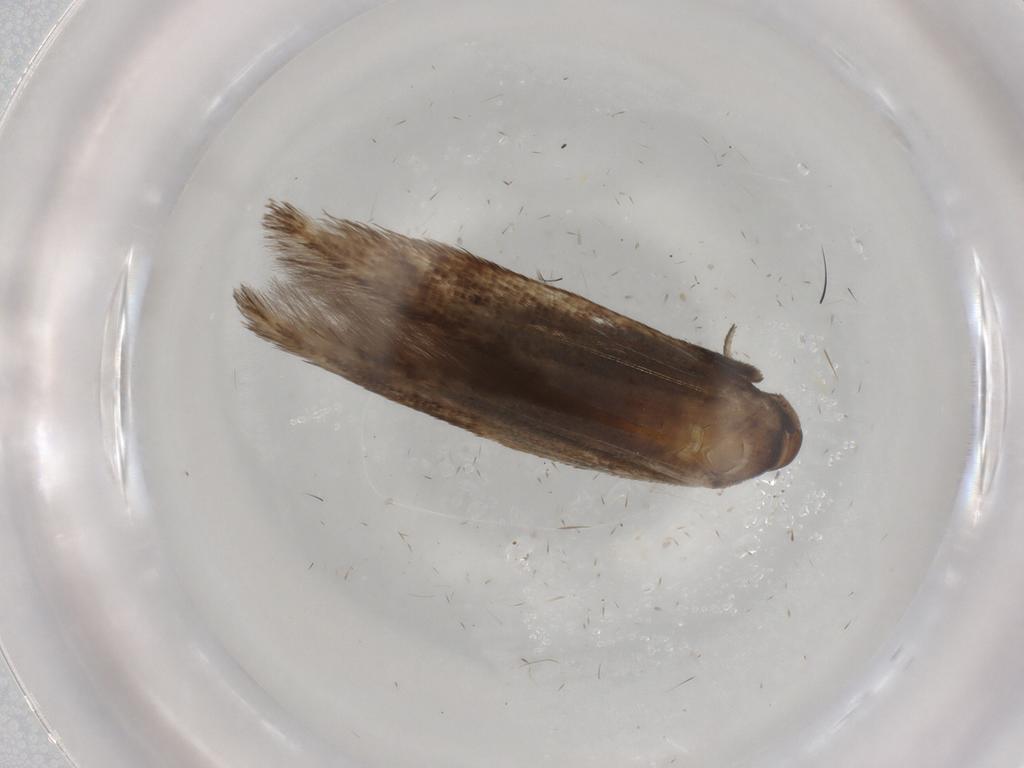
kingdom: Animalia
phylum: Arthropoda
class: Insecta
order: Lepidoptera
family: Cosmopterigidae
